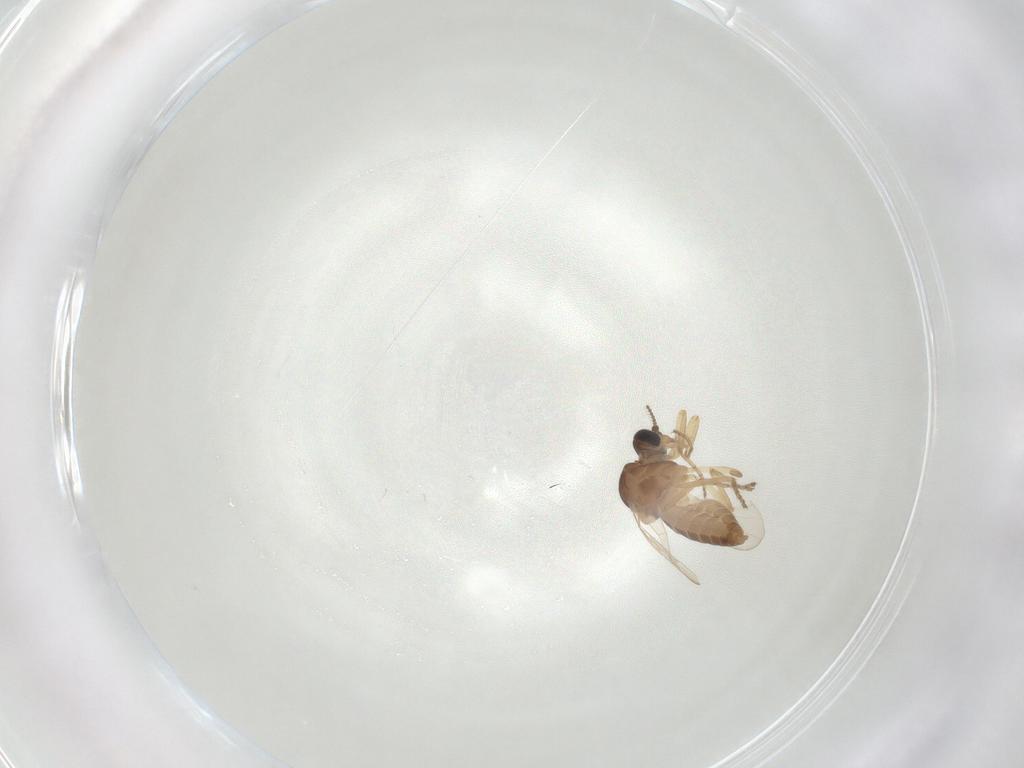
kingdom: Animalia
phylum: Arthropoda
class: Insecta
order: Diptera
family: Ceratopogonidae
